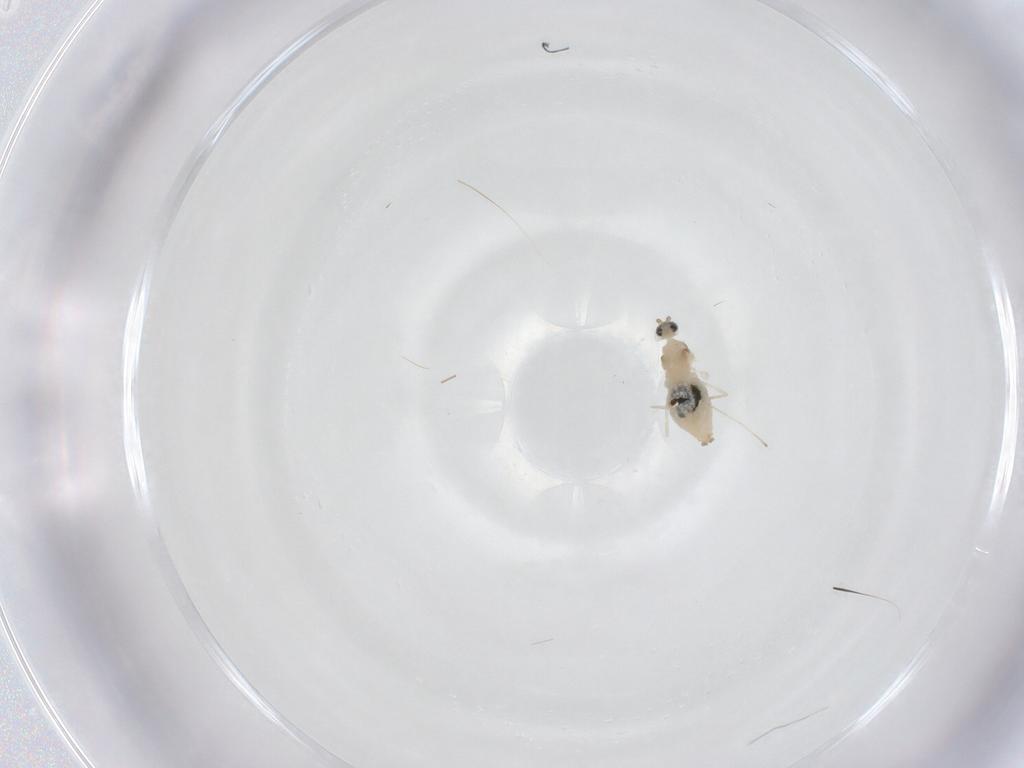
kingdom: Animalia
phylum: Arthropoda
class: Insecta
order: Diptera
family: Cecidomyiidae
